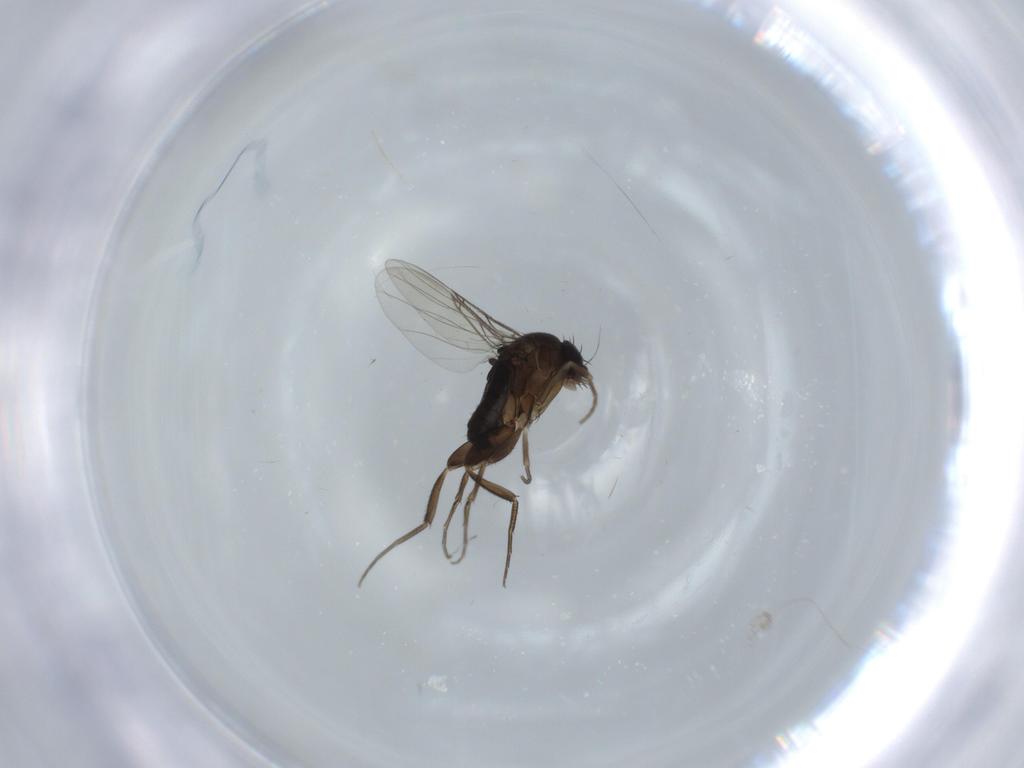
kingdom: Animalia
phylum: Arthropoda
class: Insecta
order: Diptera
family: Phoridae
